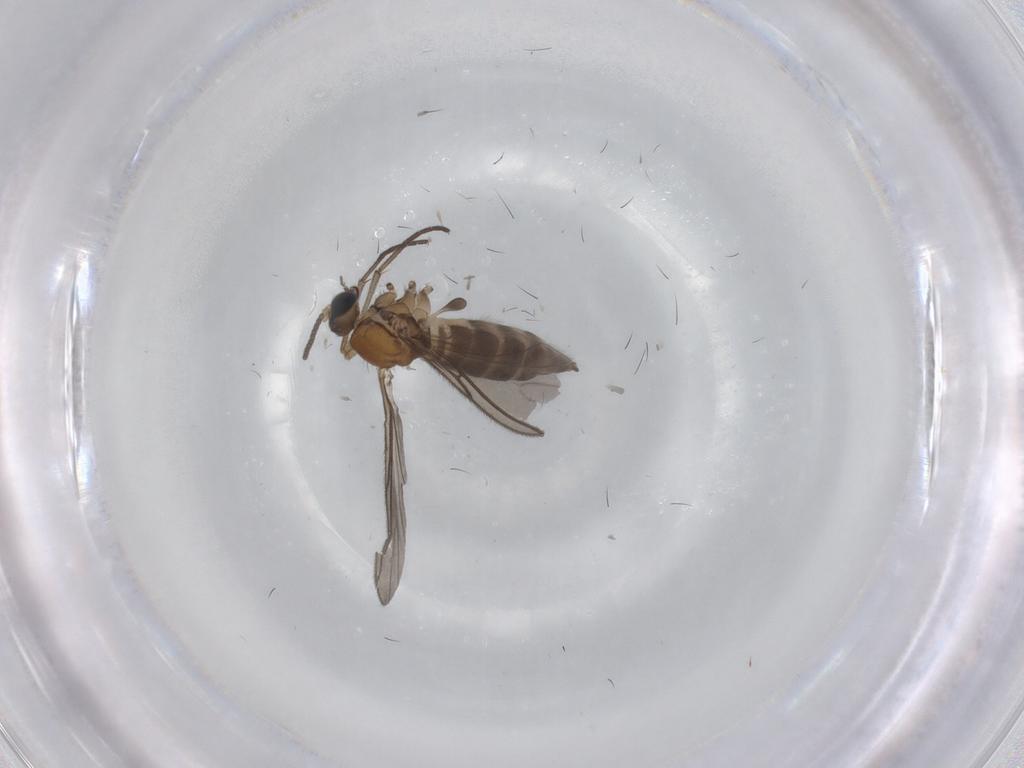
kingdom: Animalia
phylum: Arthropoda
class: Insecta
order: Diptera
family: Sciaridae
